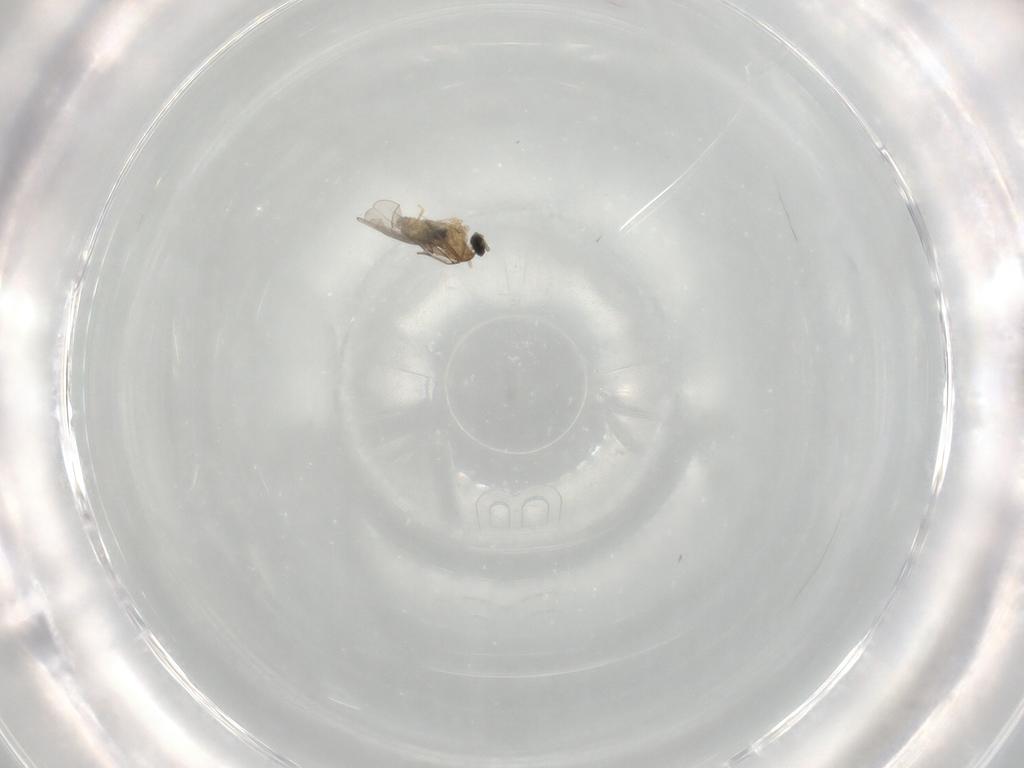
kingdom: Animalia
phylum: Arthropoda
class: Insecta
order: Diptera
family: Cecidomyiidae
